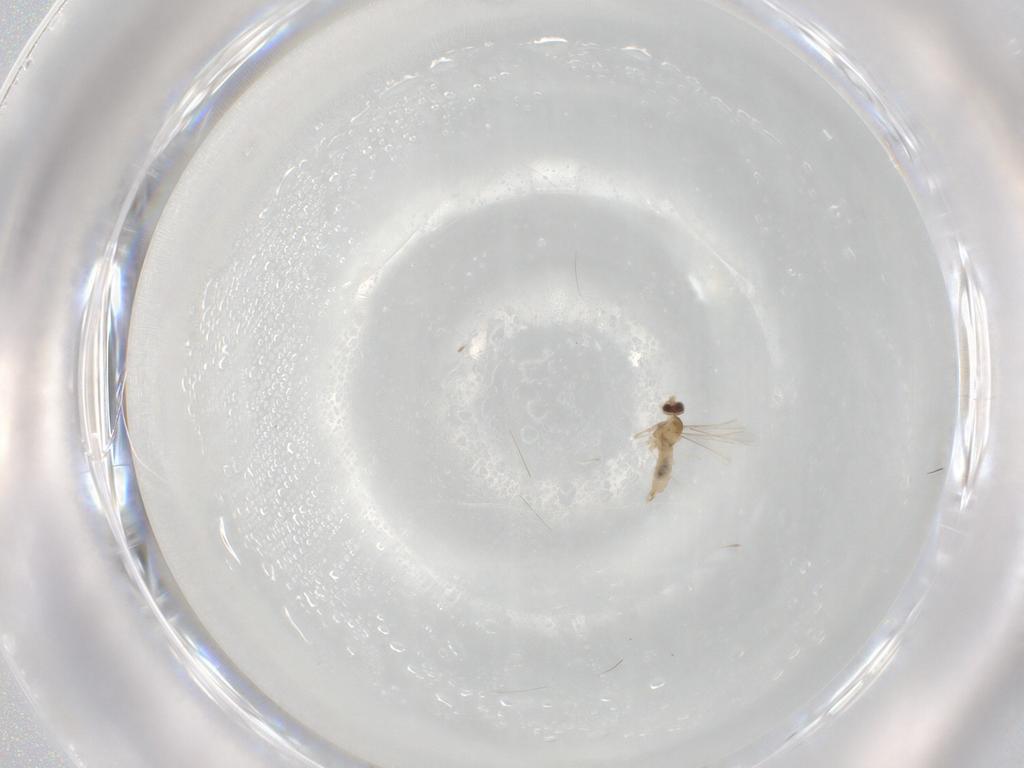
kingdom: Animalia
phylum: Arthropoda
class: Insecta
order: Diptera
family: Cecidomyiidae
